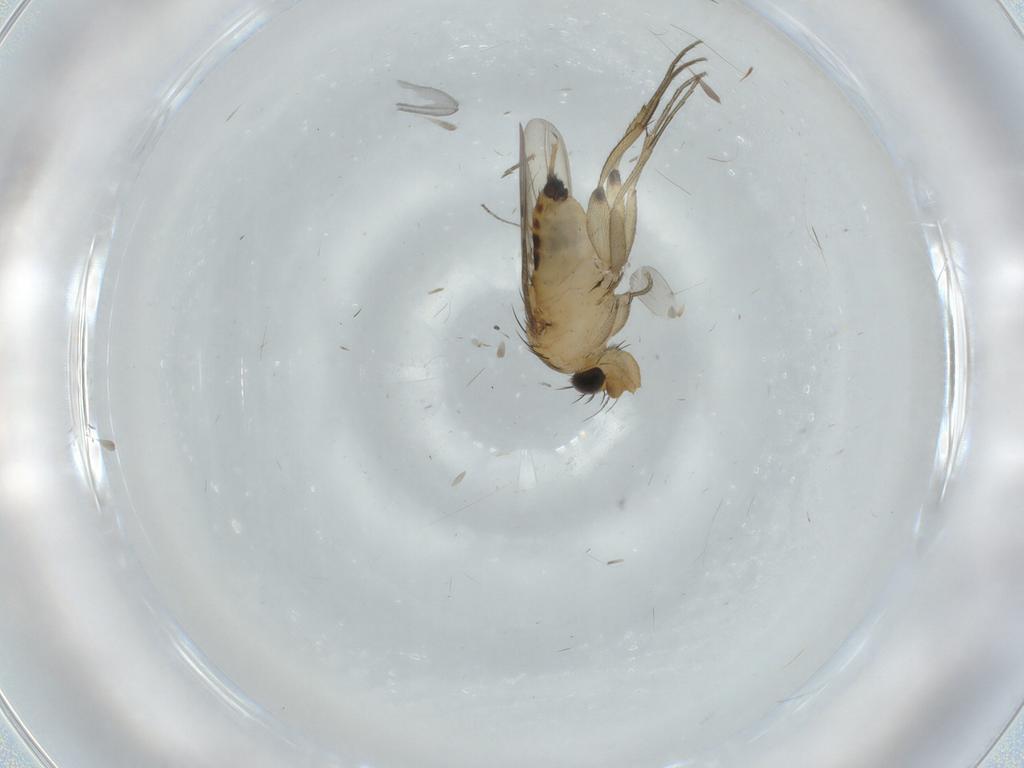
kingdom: Animalia
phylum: Arthropoda
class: Insecta
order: Diptera
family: Phoridae
